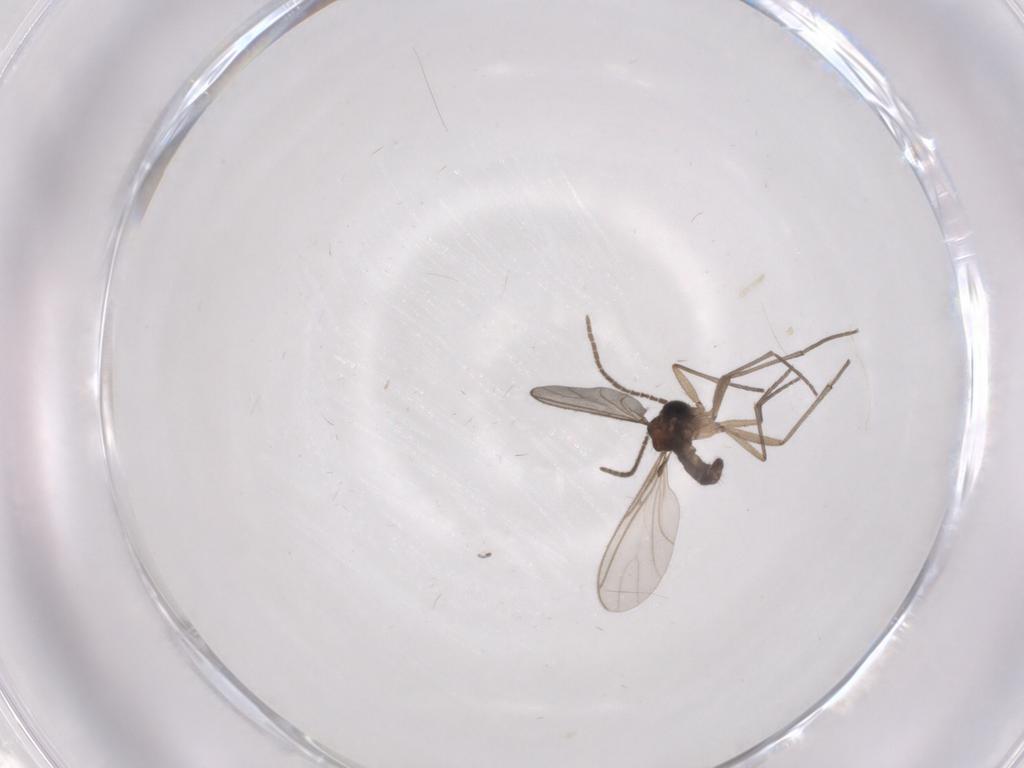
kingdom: Animalia
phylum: Arthropoda
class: Insecta
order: Diptera
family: Sciaridae
